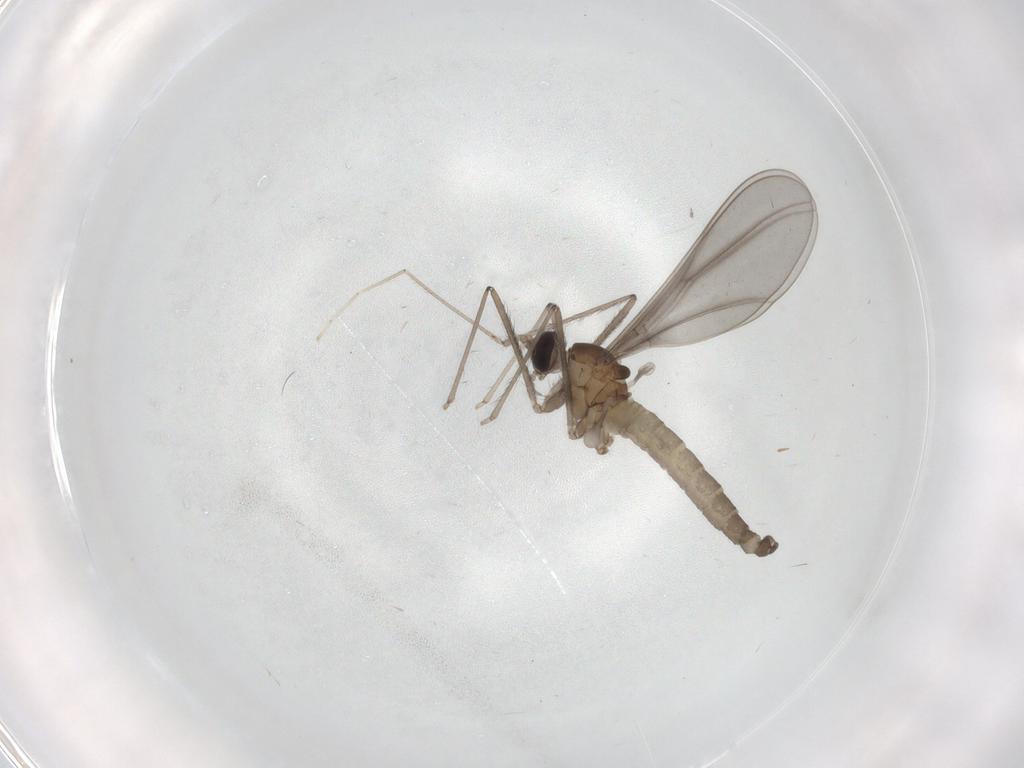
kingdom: Animalia
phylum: Arthropoda
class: Insecta
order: Diptera
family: Cecidomyiidae
